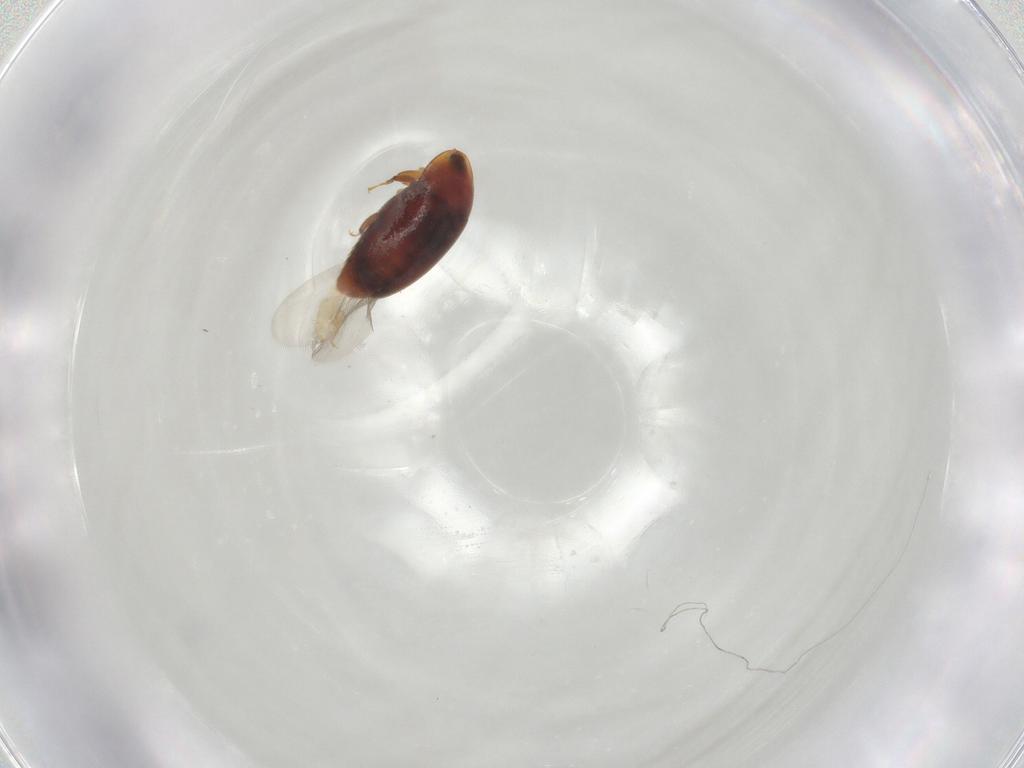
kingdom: Animalia
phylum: Arthropoda
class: Insecta
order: Coleoptera
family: Corylophidae
